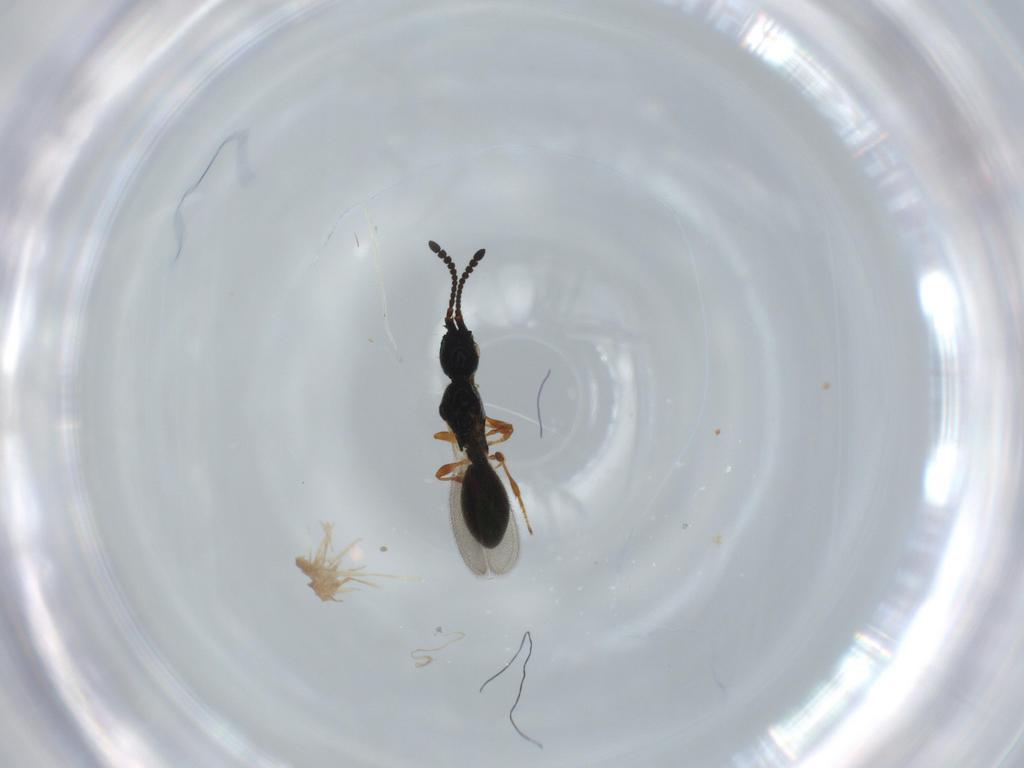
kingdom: Animalia
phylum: Arthropoda
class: Insecta
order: Hymenoptera
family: Diapriidae
